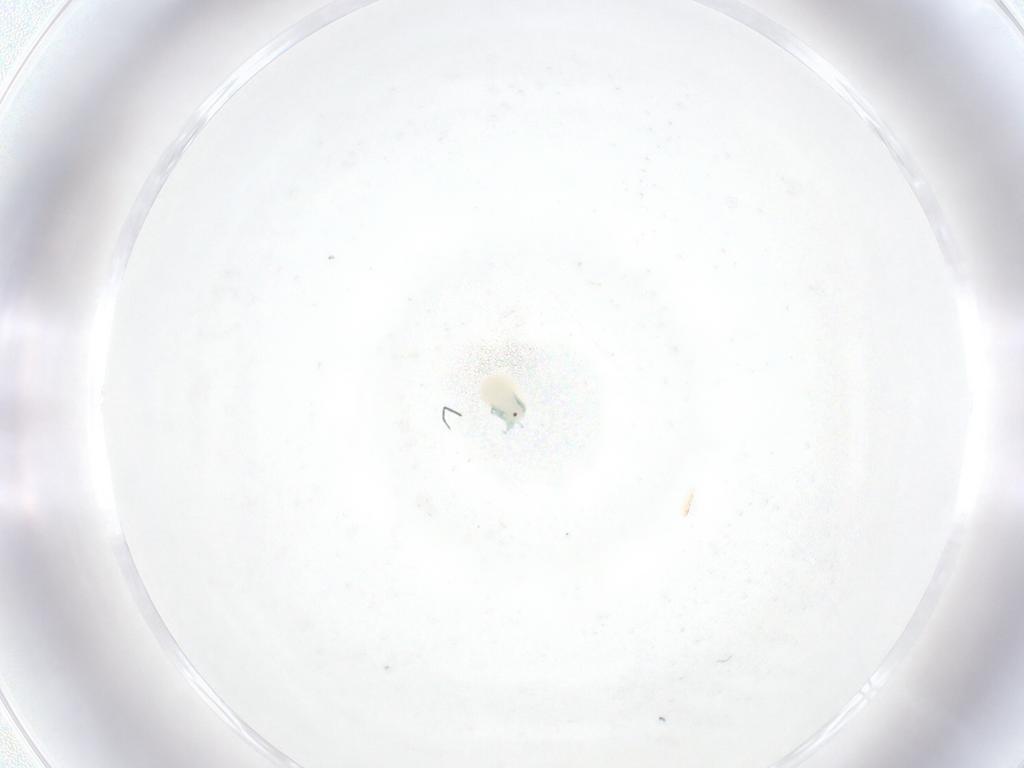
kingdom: Animalia
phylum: Arthropoda
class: Arachnida
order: Trombidiformes
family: Arrenuridae
